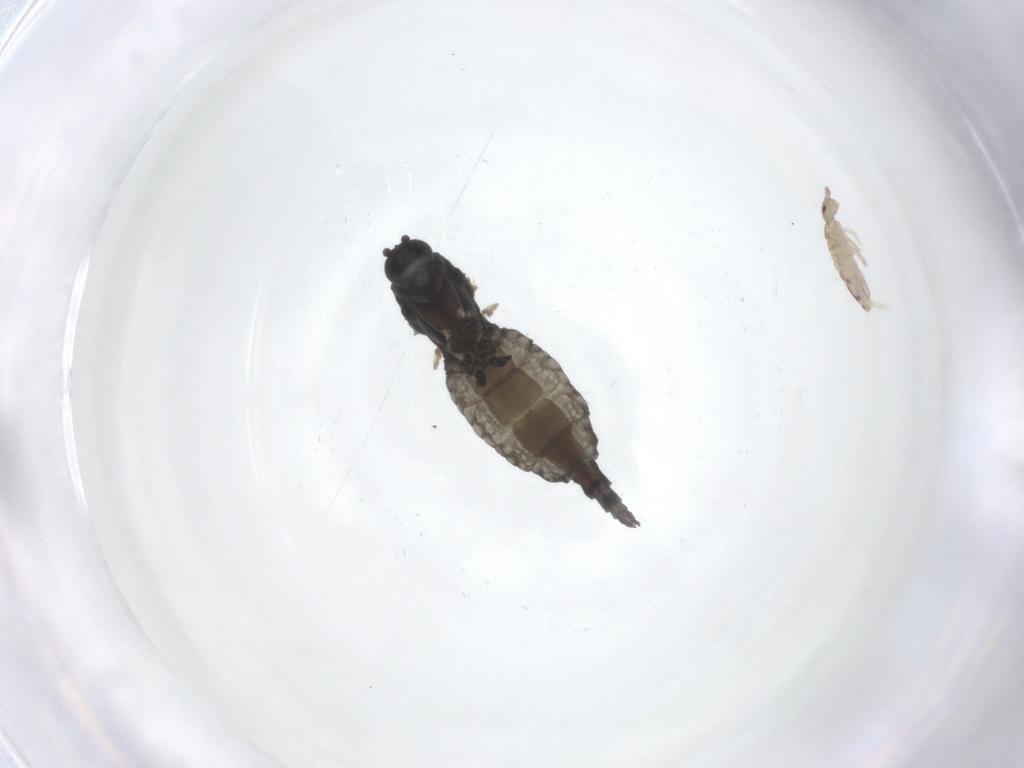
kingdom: Animalia
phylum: Arthropoda
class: Insecta
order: Diptera
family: Sciaridae
